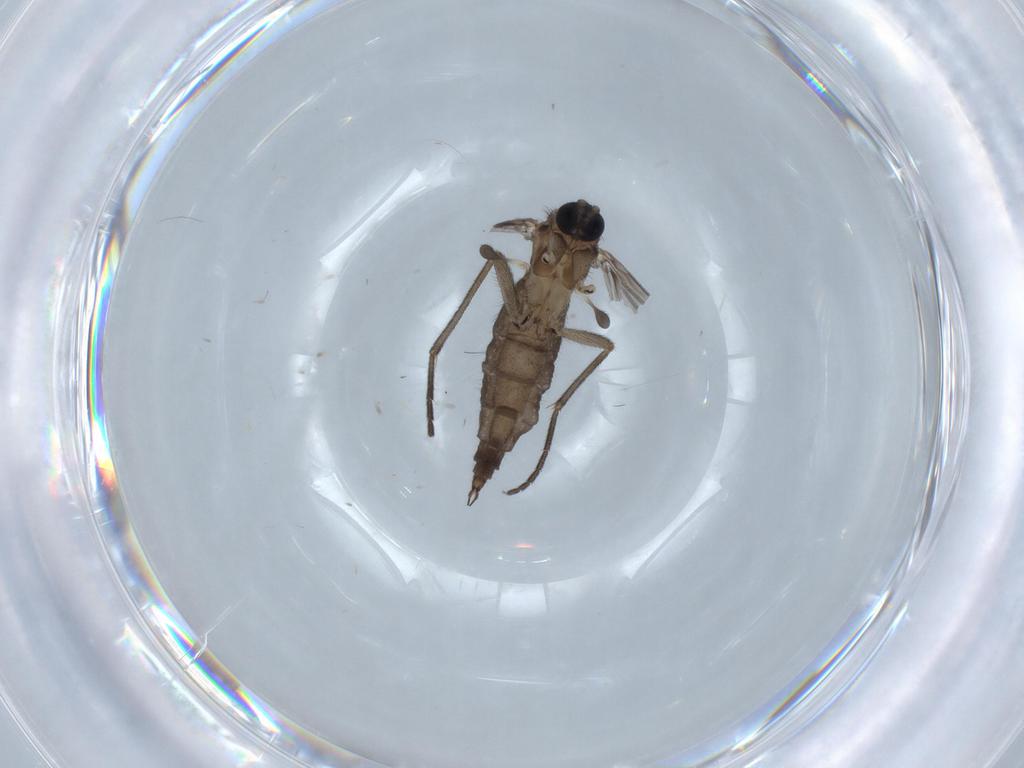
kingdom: Animalia
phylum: Arthropoda
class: Insecta
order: Diptera
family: Sciaridae
